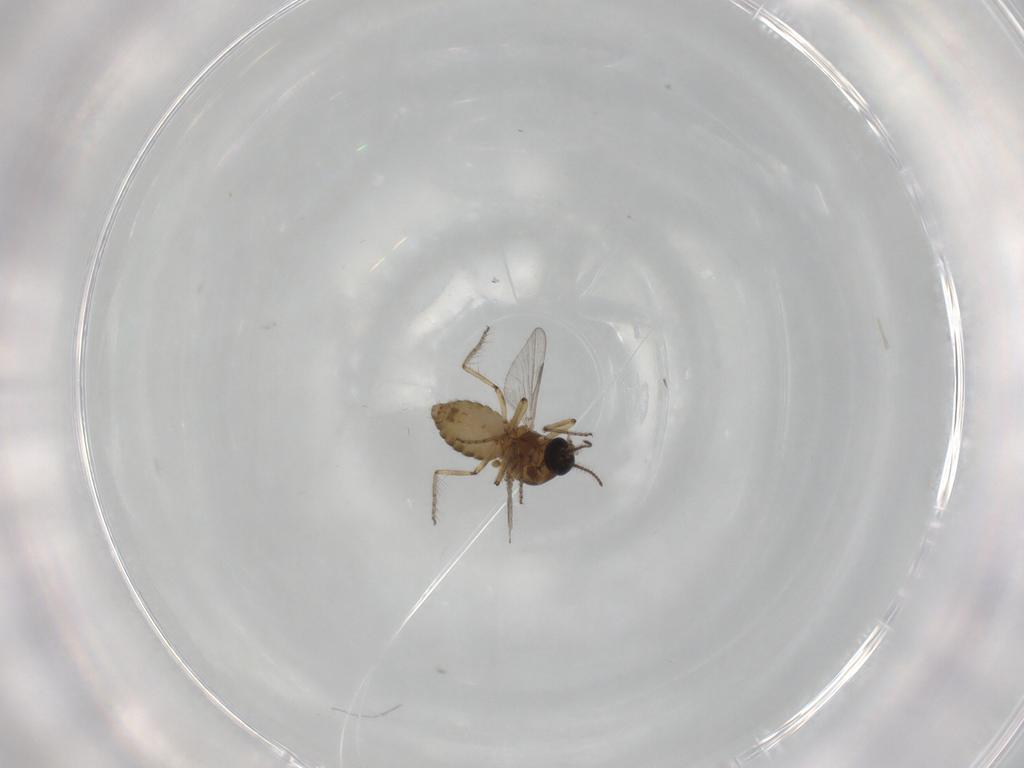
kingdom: Animalia
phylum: Arthropoda
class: Insecta
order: Diptera
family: Ceratopogonidae
